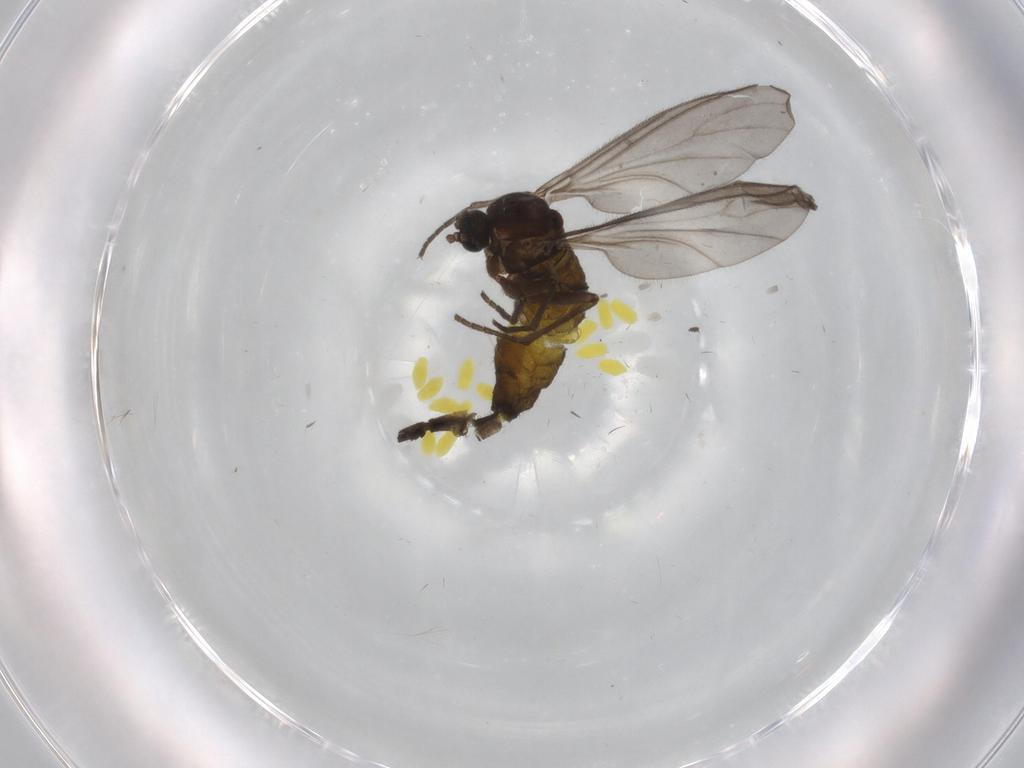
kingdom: Animalia
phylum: Arthropoda
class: Insecta
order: Diptera
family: Sciaridae
